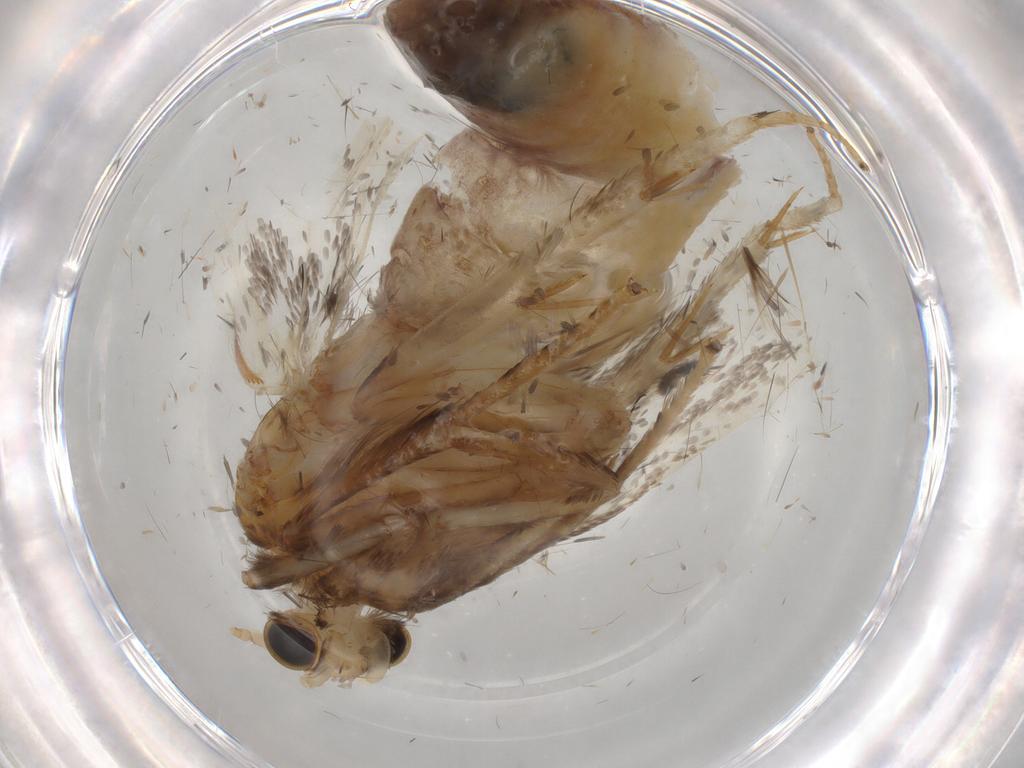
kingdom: Animalia
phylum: Arthropoda
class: Insecta
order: Lepidoptera
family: Tineidae
